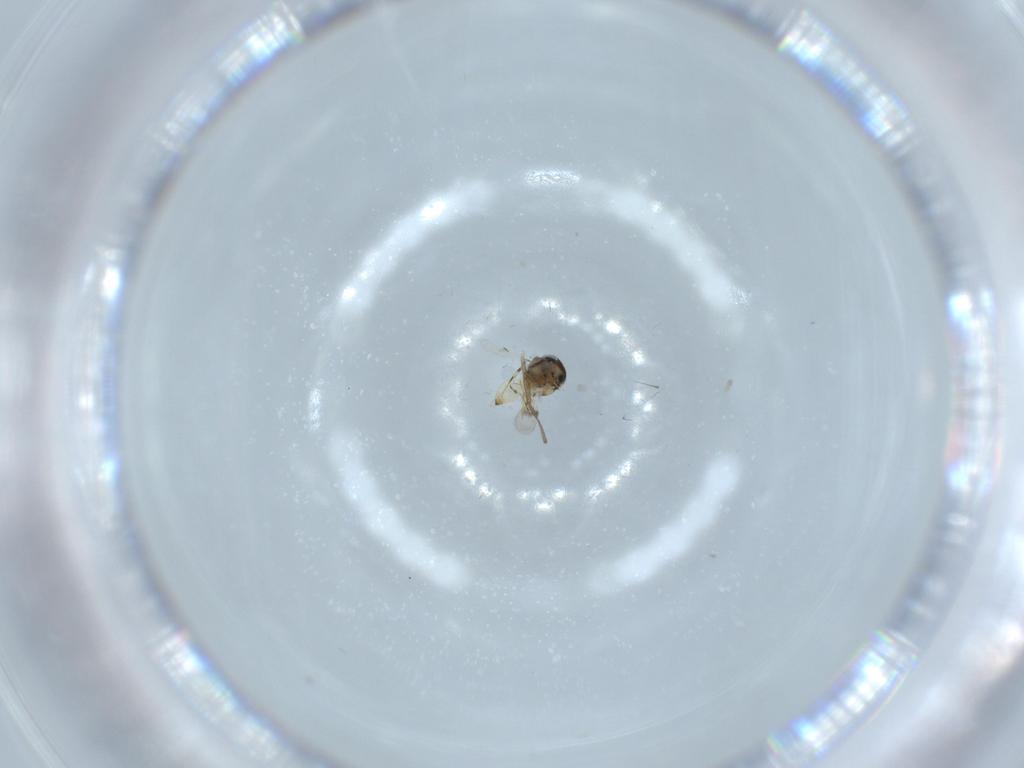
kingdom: Animalia
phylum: Arthropoda
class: Insecta
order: Hymenoptera
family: Scelionidae
